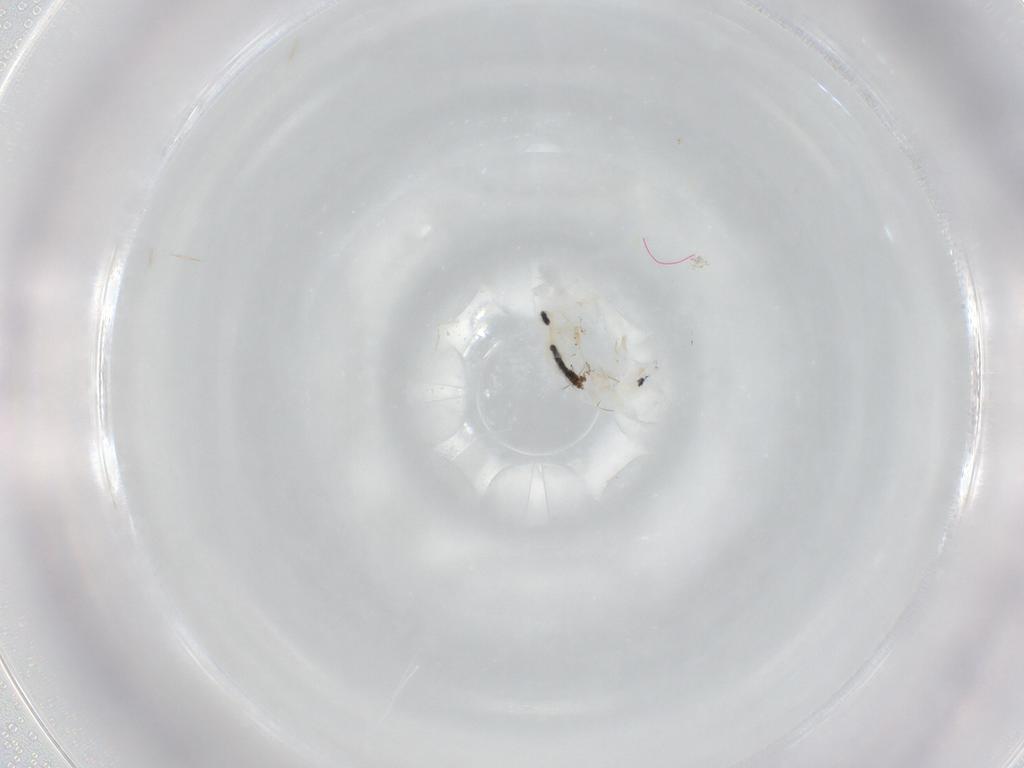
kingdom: Animalia
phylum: Arthropoda
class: Collembola
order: Entomobryomorpha
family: Entomobryidae
